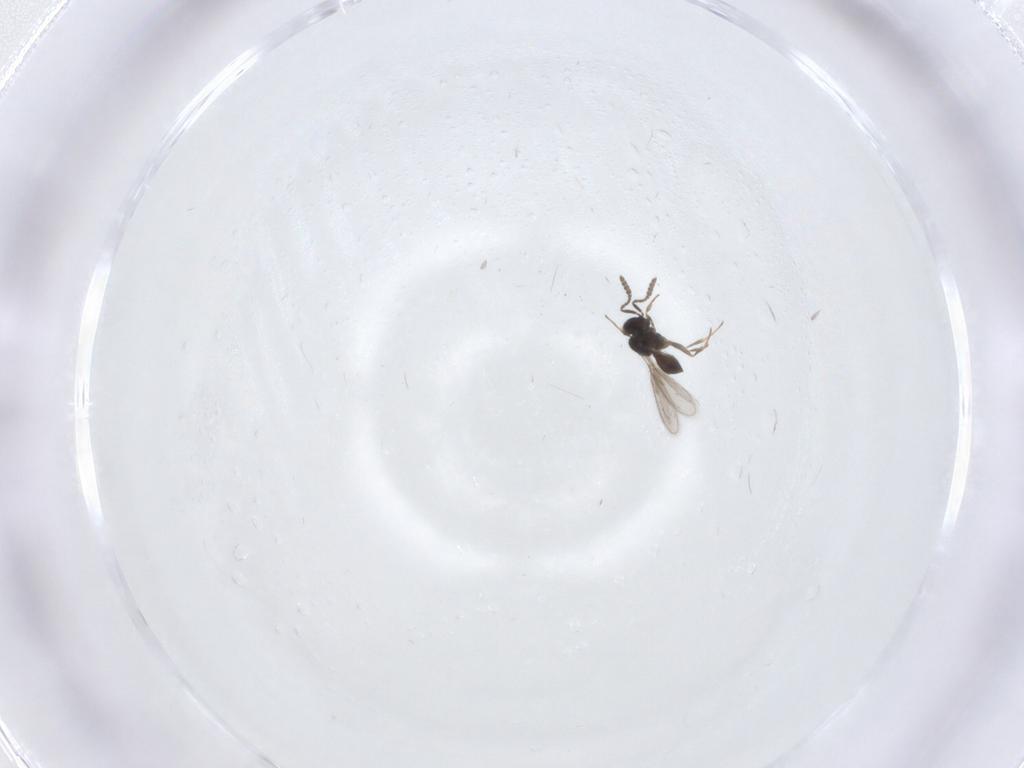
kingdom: Animalia
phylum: Arthropoda
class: Insecta
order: Hymenoptera
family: Scelionidae
